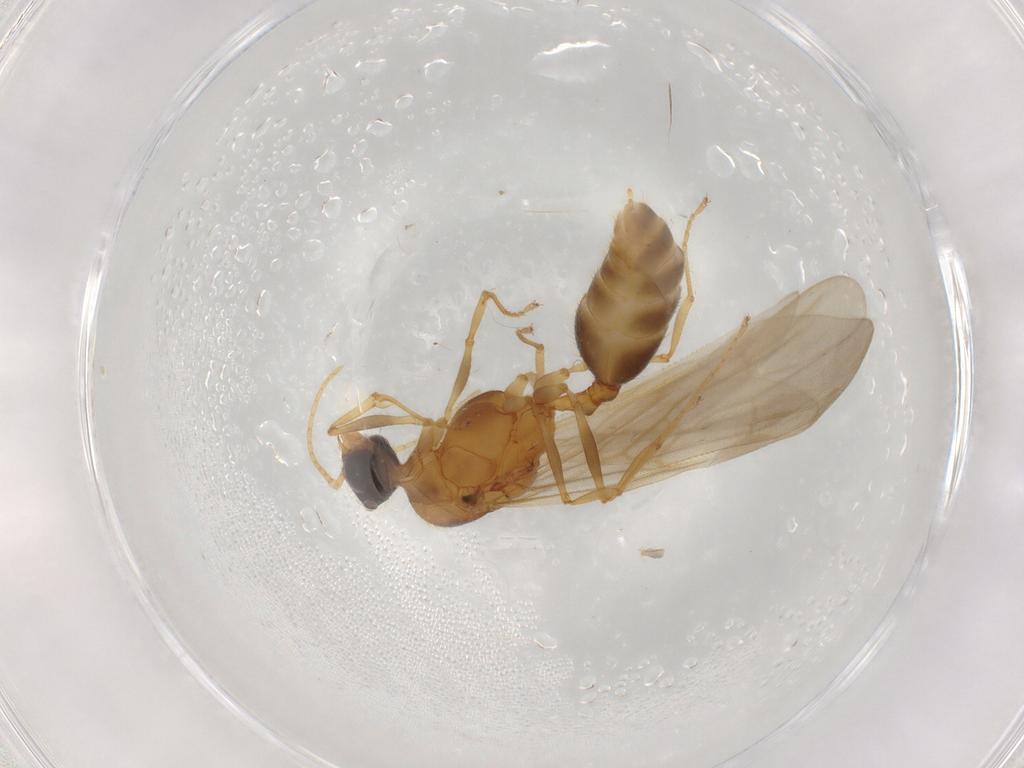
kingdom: Animalia
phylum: Arthropoda
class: Insecta
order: Hymenoptera
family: Formicidae
